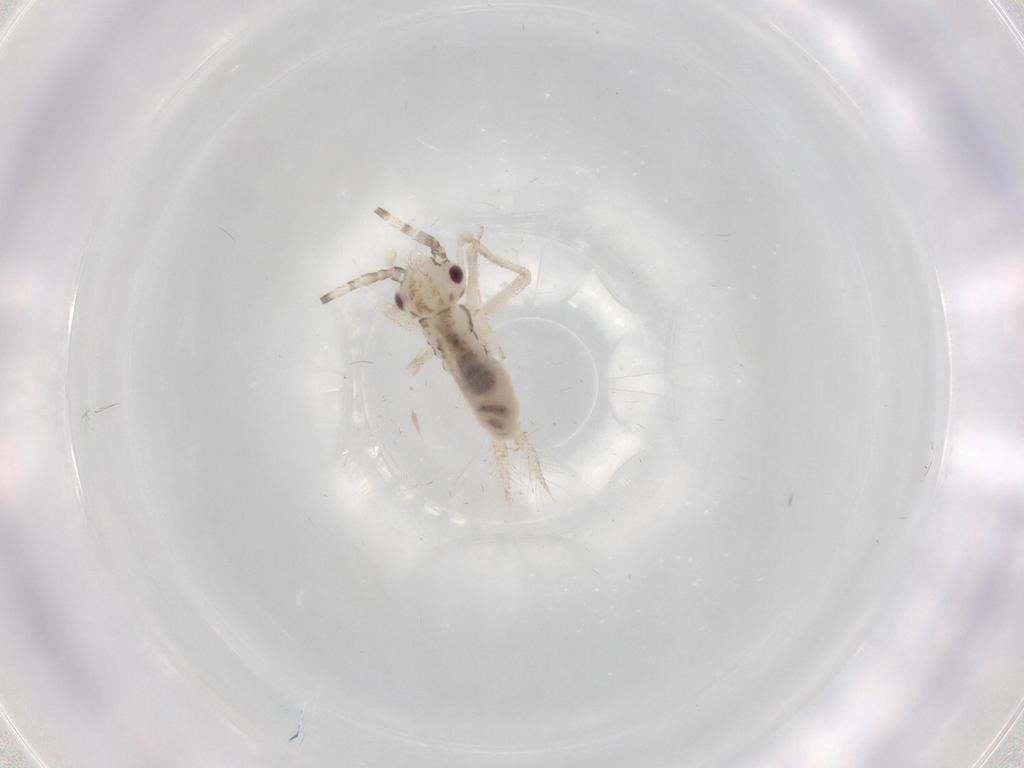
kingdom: Animalia
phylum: Arthropoda
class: Insecta
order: Orthoptera
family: Trigonidiidae
